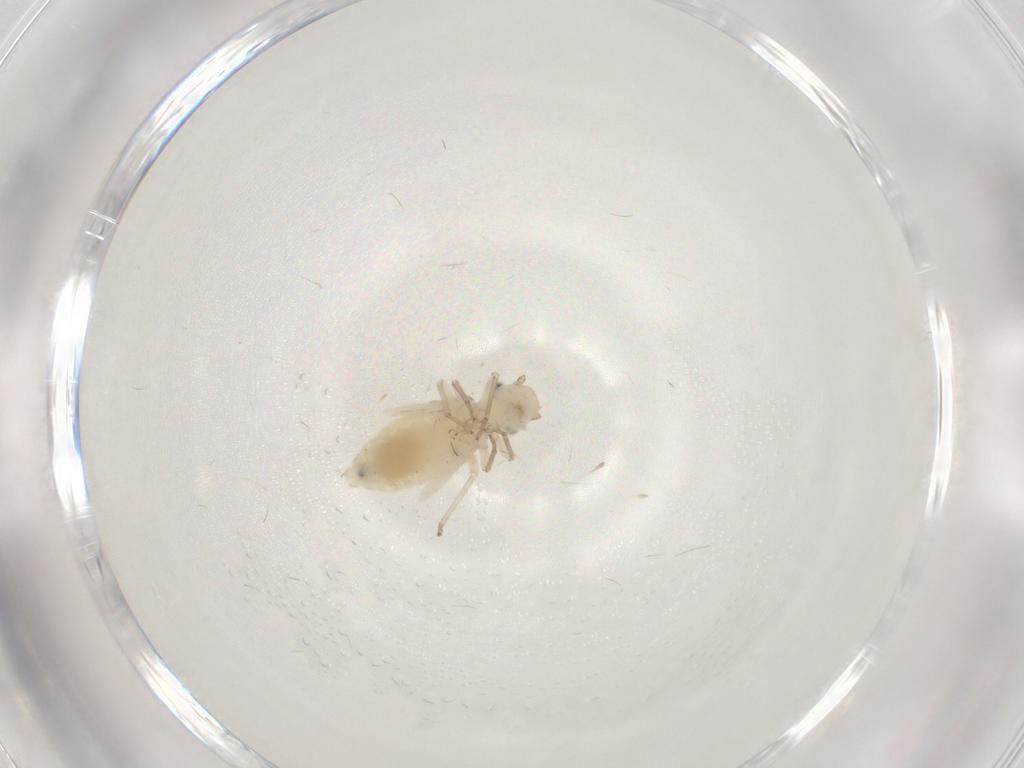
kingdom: Animalia
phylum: Arthropoda
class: Insecta
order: Psocodea
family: Caeciliusidae
